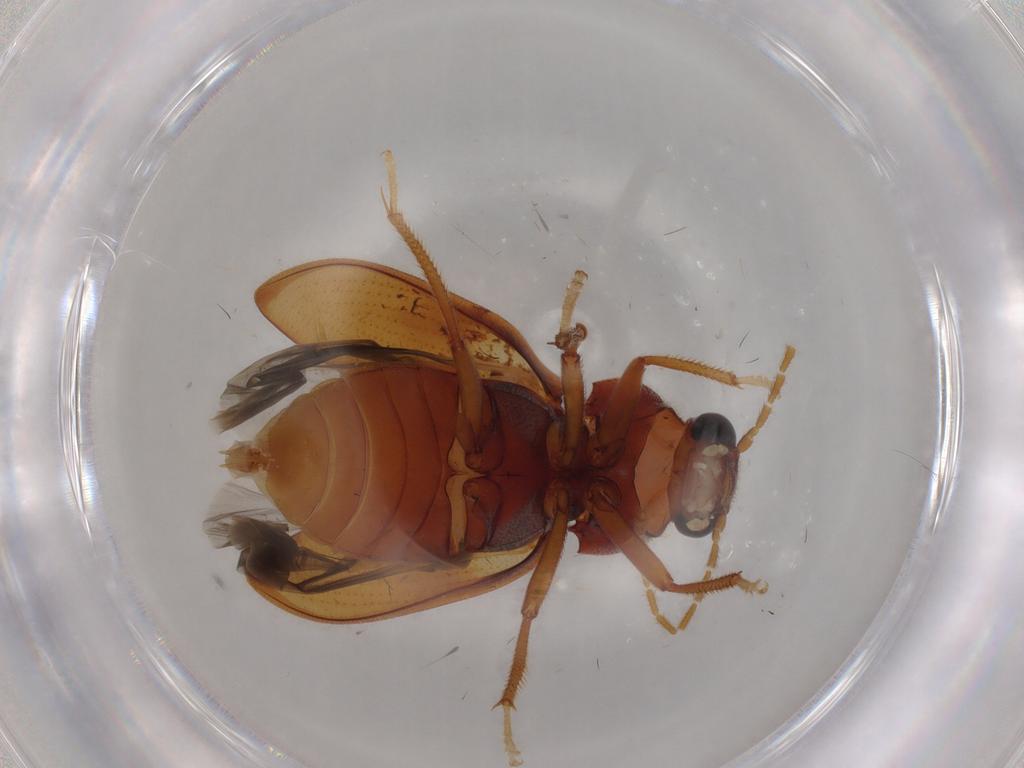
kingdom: Animalia
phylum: Arthropoda
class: Insecta
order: Coleoptera
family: Ptilodactylidae
